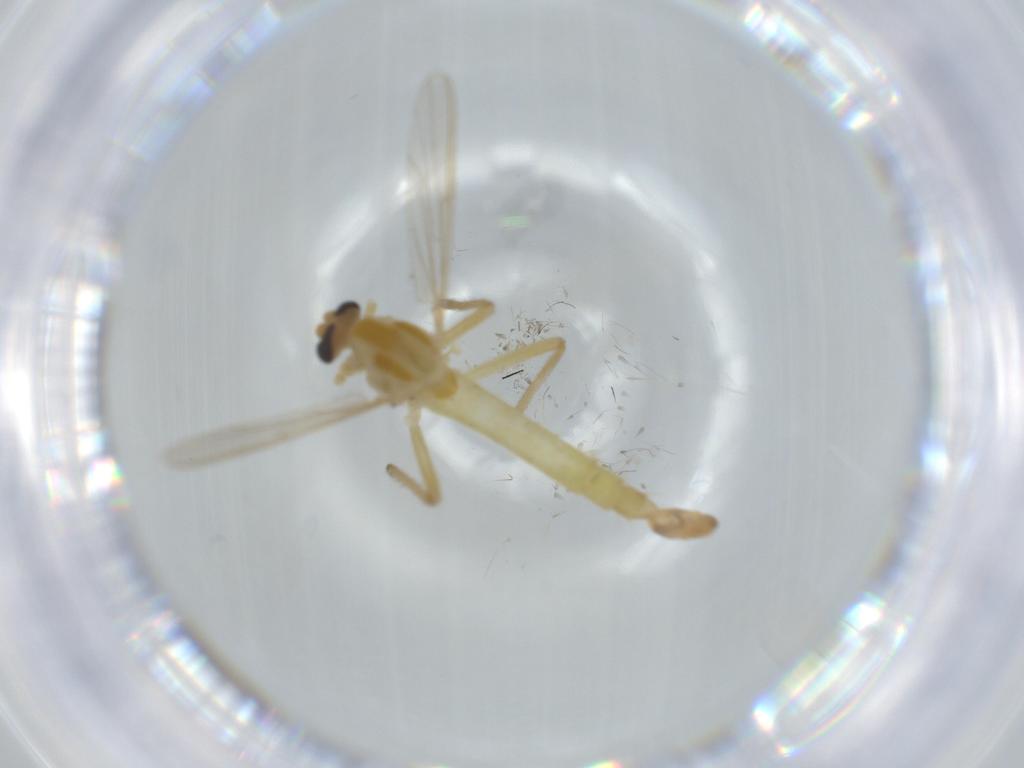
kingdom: Animalia
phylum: Arthropoda
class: Insecta
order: Diptera
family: Chironomidae
